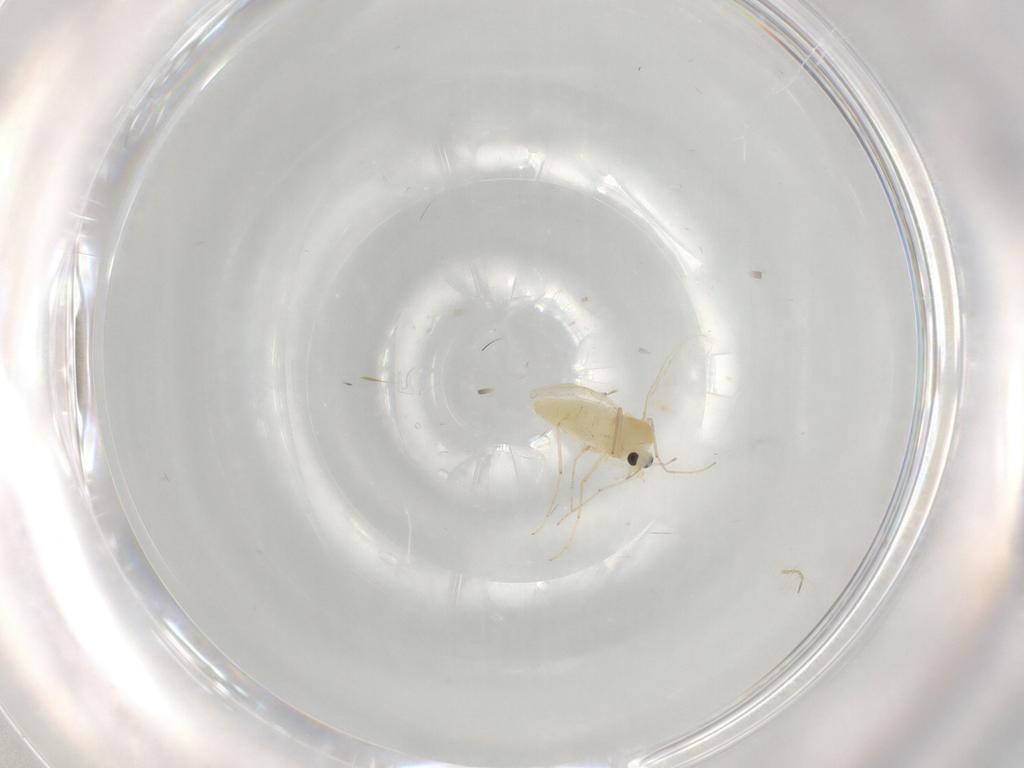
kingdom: Animalia
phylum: Arthropoda
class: Insecta
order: Diptera
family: Chironomidae
